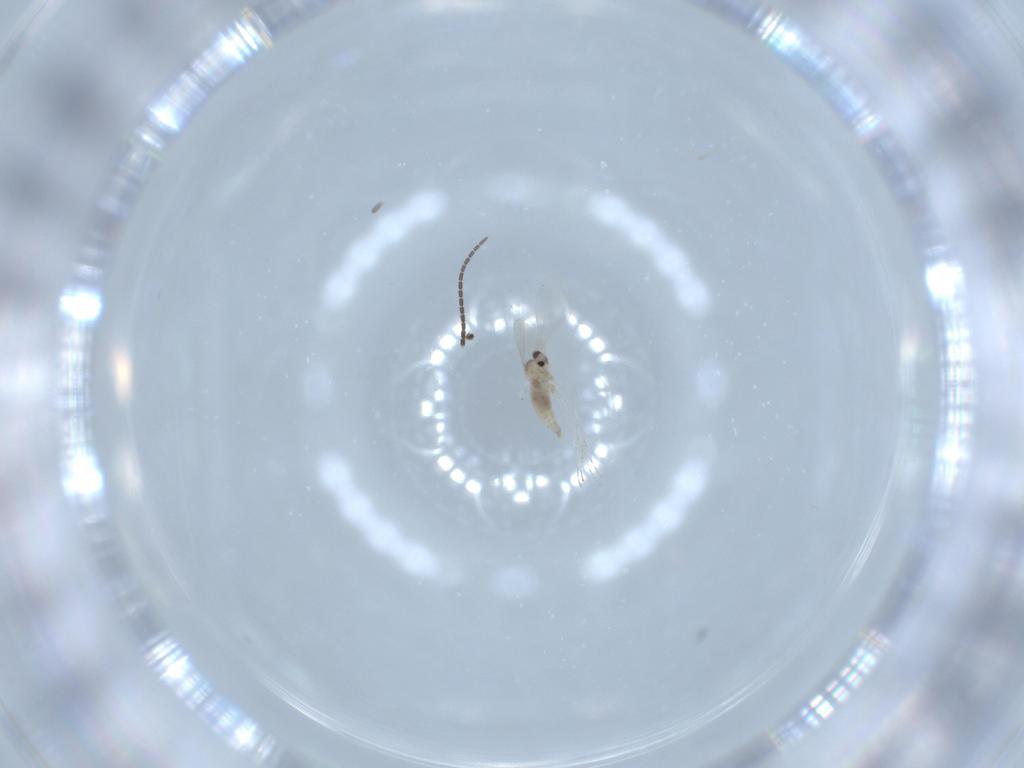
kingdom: Animalia
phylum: Arthropoda
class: Insecta
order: Diptera
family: Cecidomyiidae
